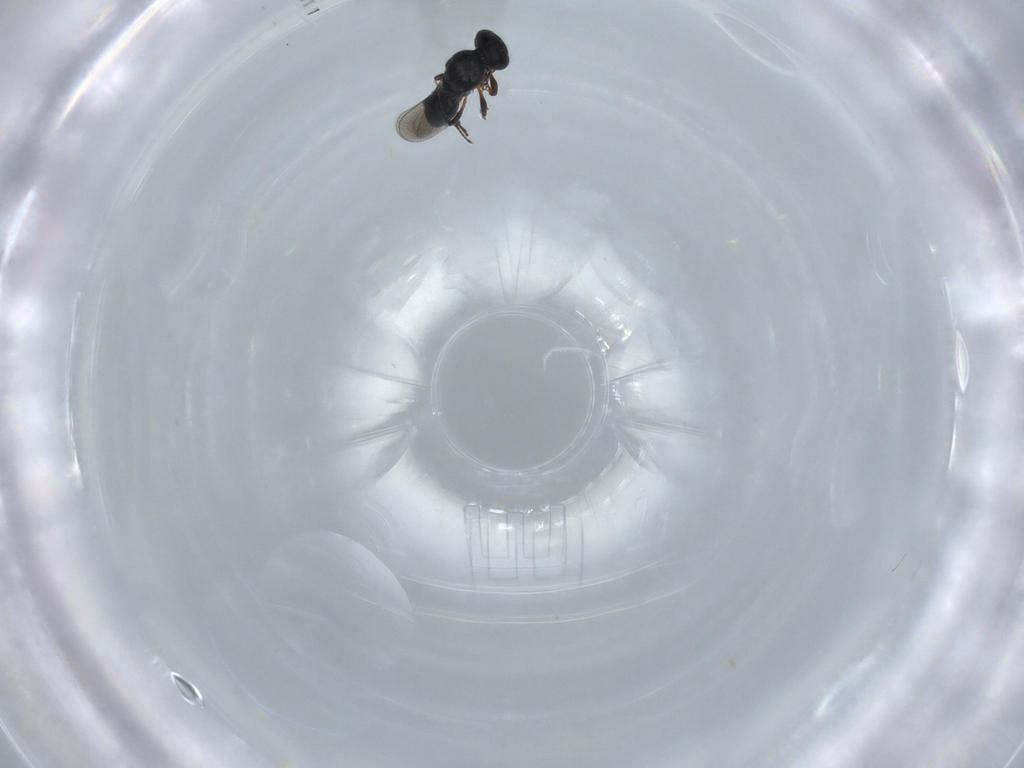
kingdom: Animalia
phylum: Arthropoda
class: Insecta
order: Hymenoptera
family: Platygastridae
